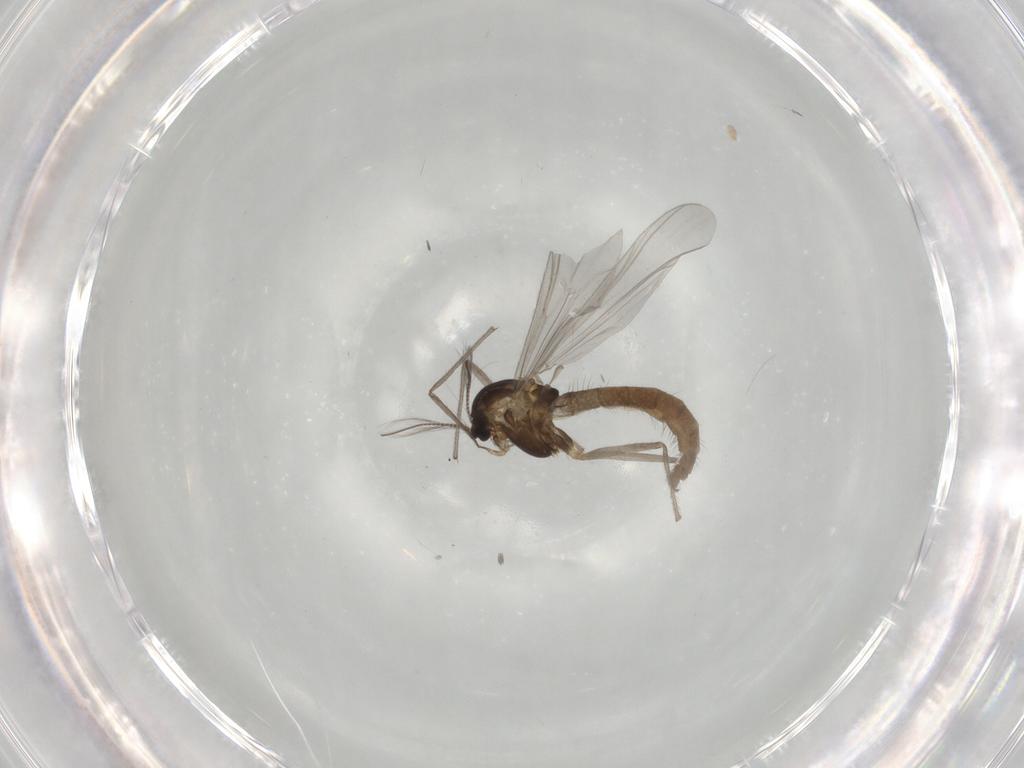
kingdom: Animalia
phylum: Arthropoda
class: Insecta
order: Diptera
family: Chironomidae
